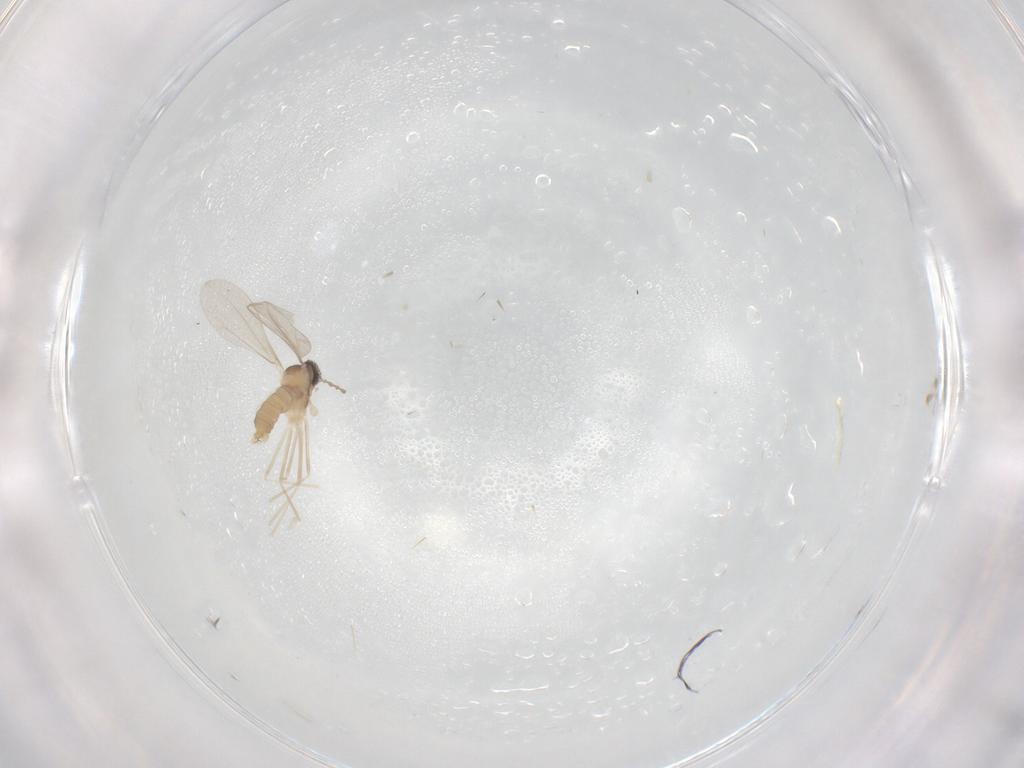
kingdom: Animalia
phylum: Arthropoda
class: Insecta
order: Diptera
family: Cecidomyiidae
